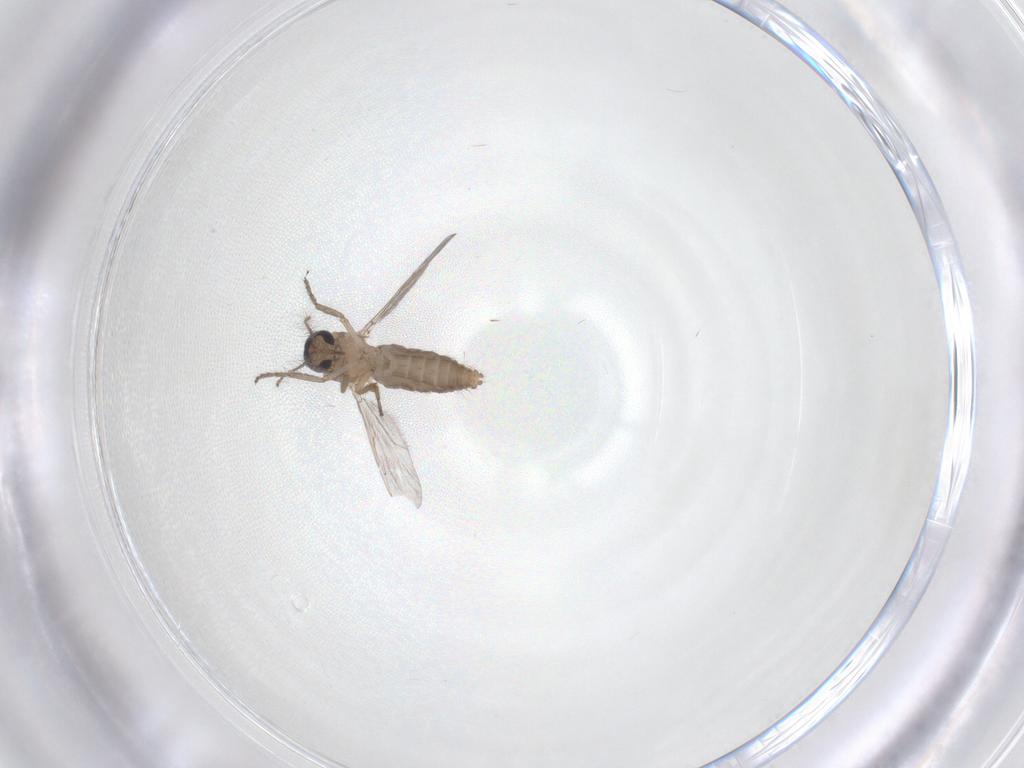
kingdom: Animalia
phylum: Arthropoda
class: Insecta
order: Diptera
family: Ceratopogonidae
